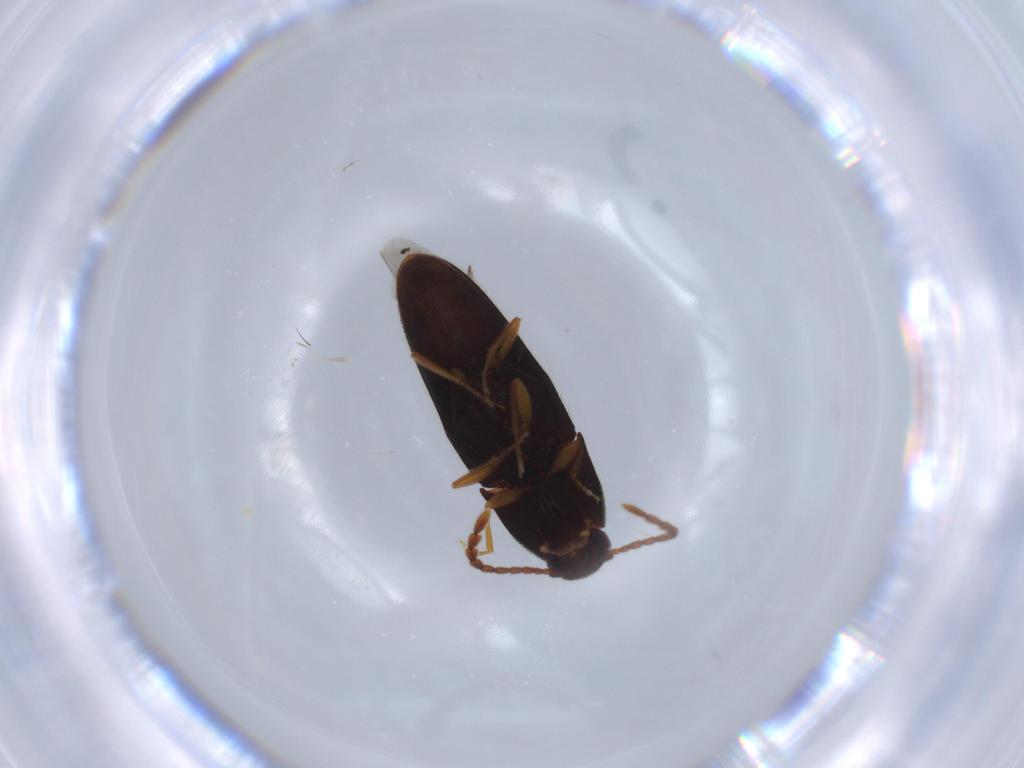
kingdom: Animalia
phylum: Arthropoda
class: Insecta
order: Coleoptera
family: Elateridae
